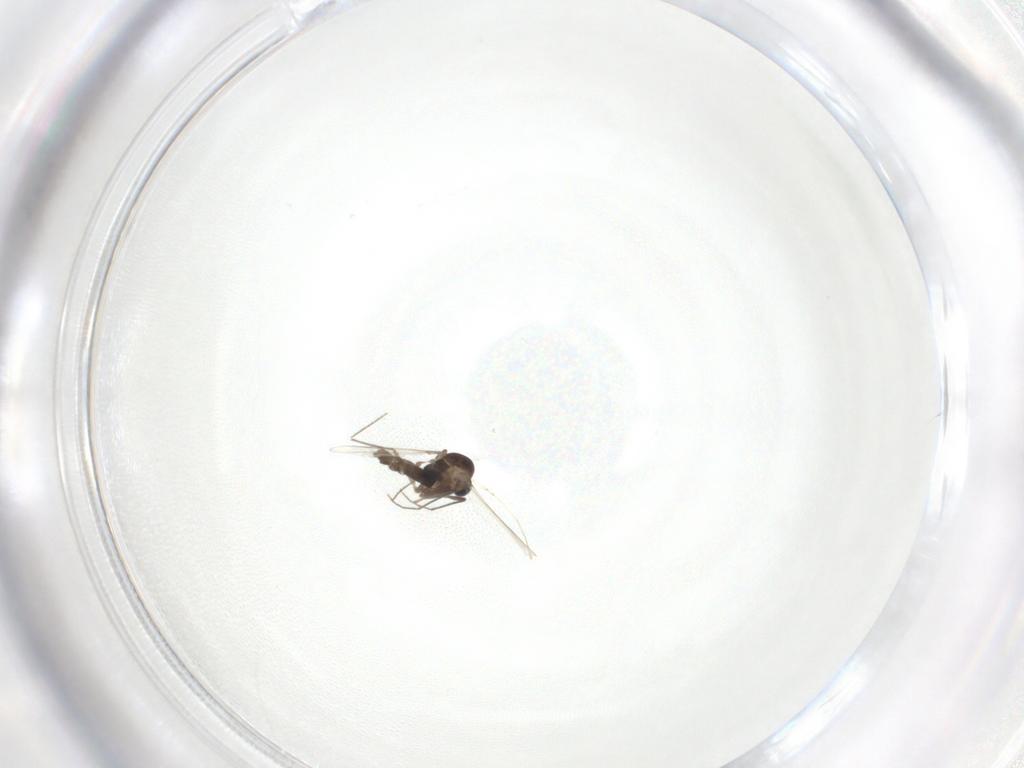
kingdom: Animalia
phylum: Arthropoda
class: Insecta
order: Diptera
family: Chironomidae
